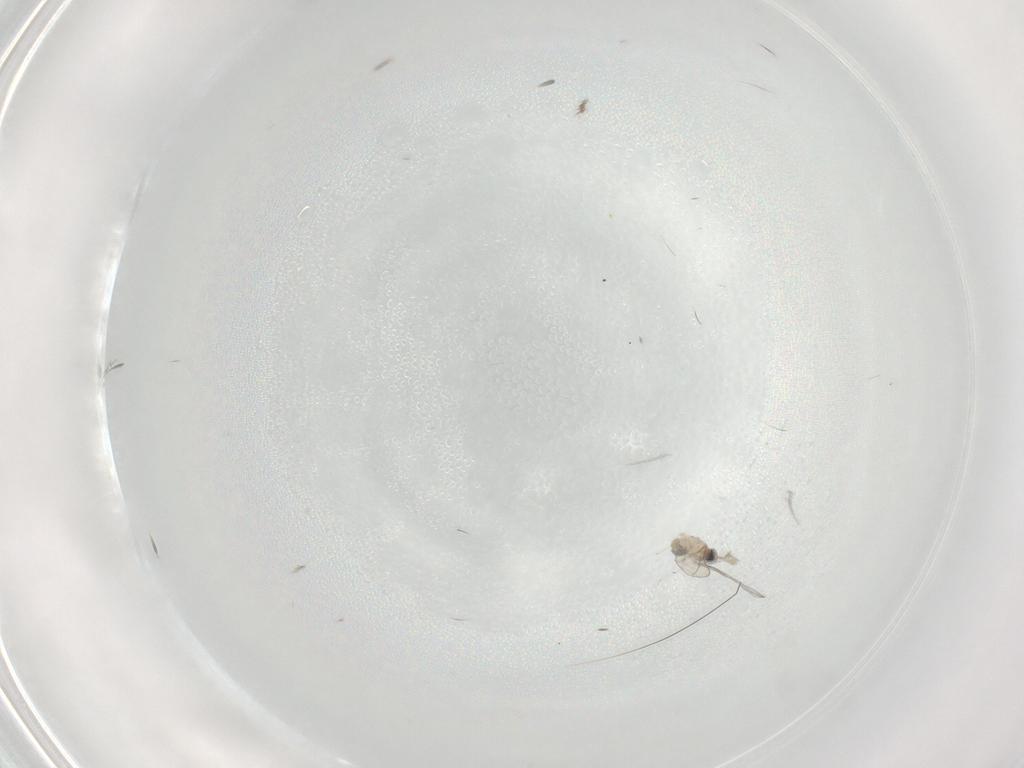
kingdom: Animalia
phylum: Arthropoda
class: Insecta
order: Diptera
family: Phoridae
